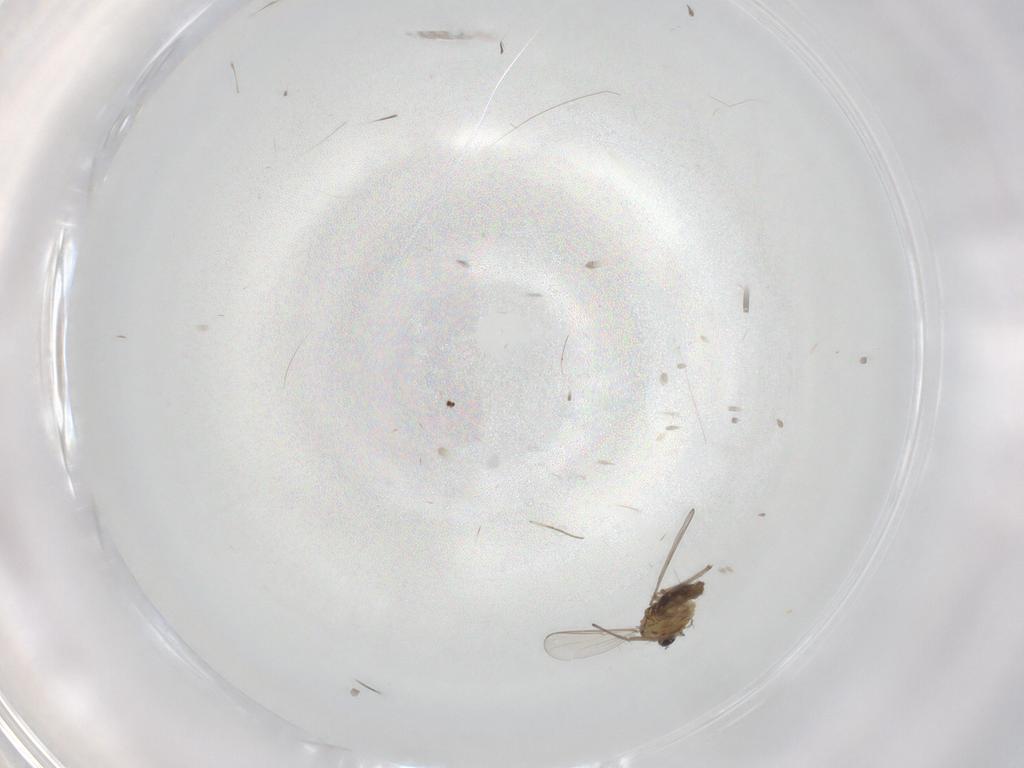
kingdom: Animalia
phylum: Arthropoda
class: Insecta
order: Diptera
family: Chironomidae
